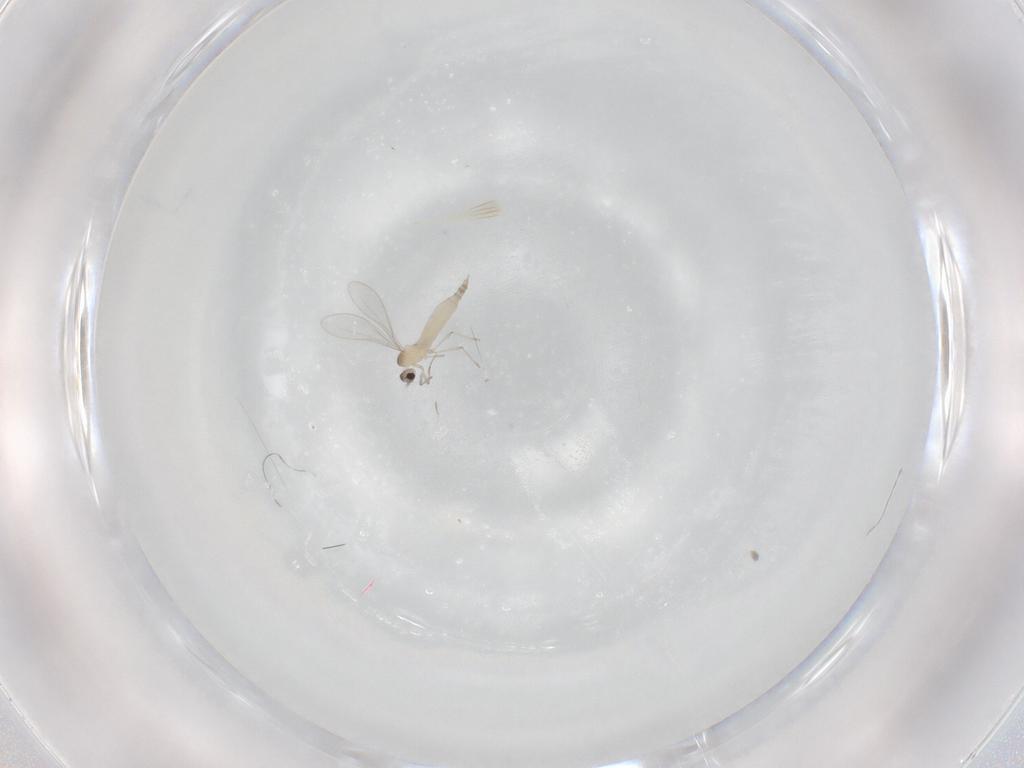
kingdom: Animalia
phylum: Arthropoda
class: Insecta
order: Diptera
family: Cecidomyiidae
